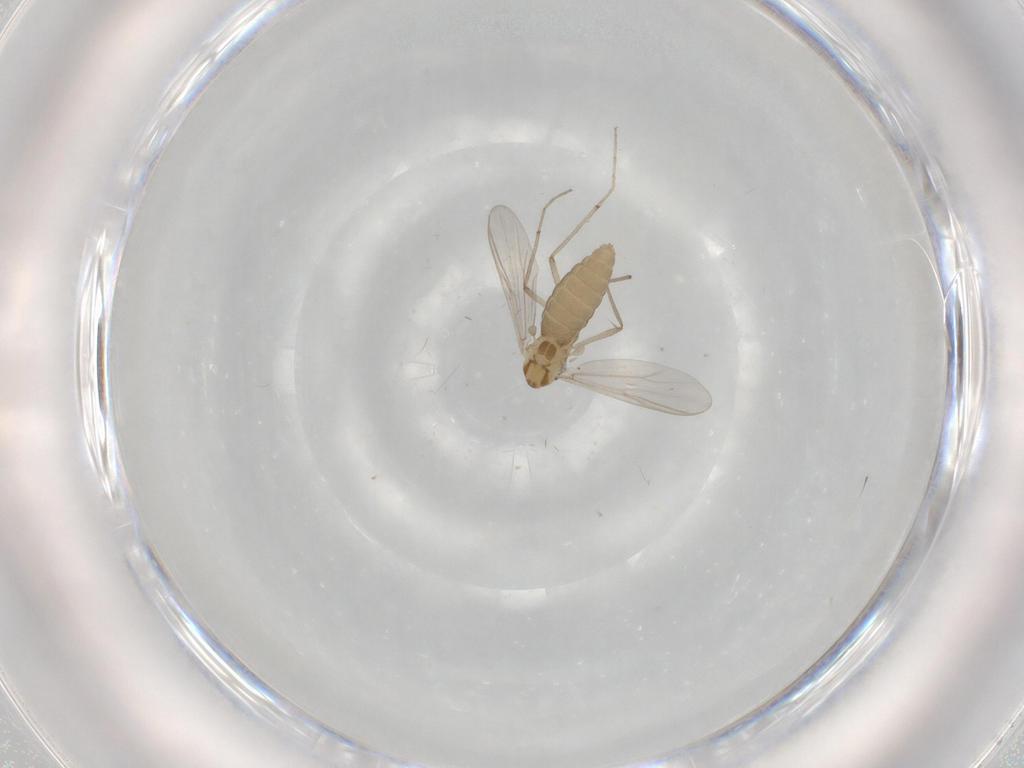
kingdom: Animalia
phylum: Arthropoda
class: Insecta
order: Diptera
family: Chironomidae
